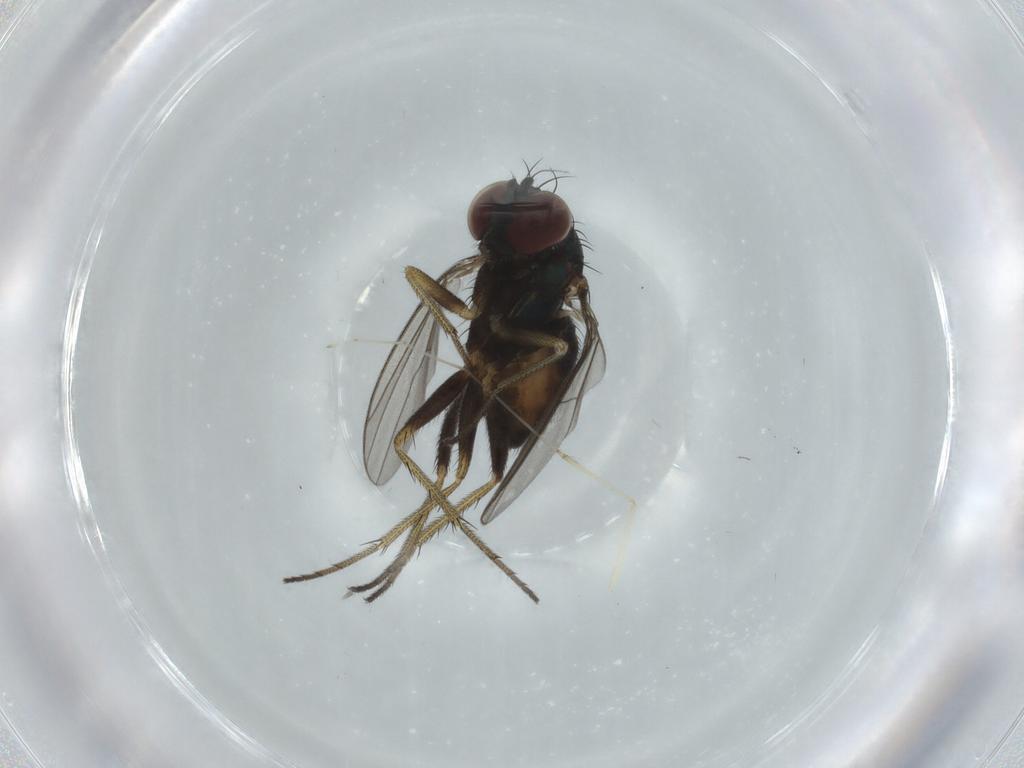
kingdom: Animalia
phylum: Arthropoda
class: Insecta
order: Diptera
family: Dolichopodidae
